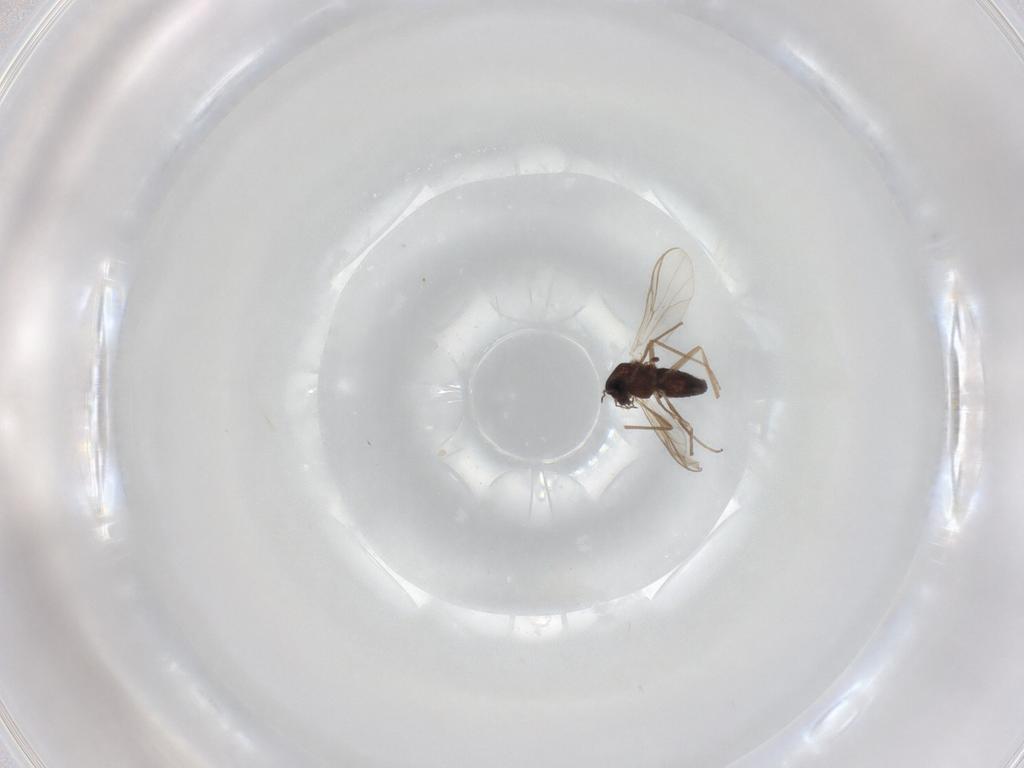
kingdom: Animalia
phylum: Arthropoda
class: Insecta
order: Diptera
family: Chironomidae
